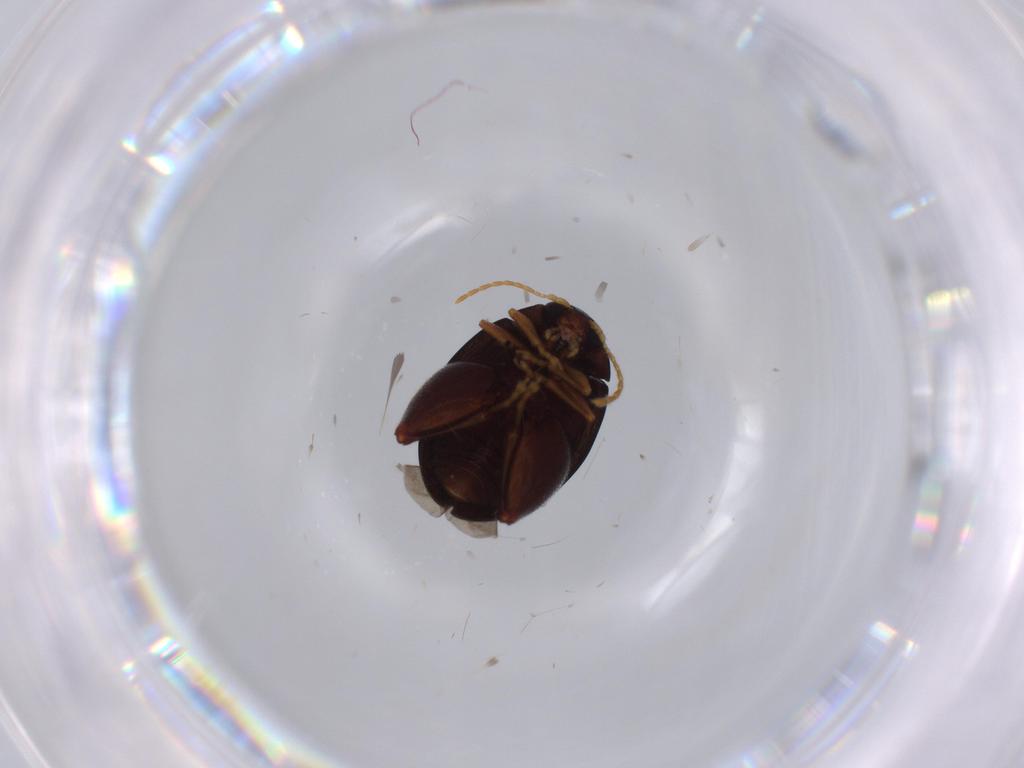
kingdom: Animalia
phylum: Arthropoda
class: Insecta
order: Coleoptera
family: Chrysomelidae
